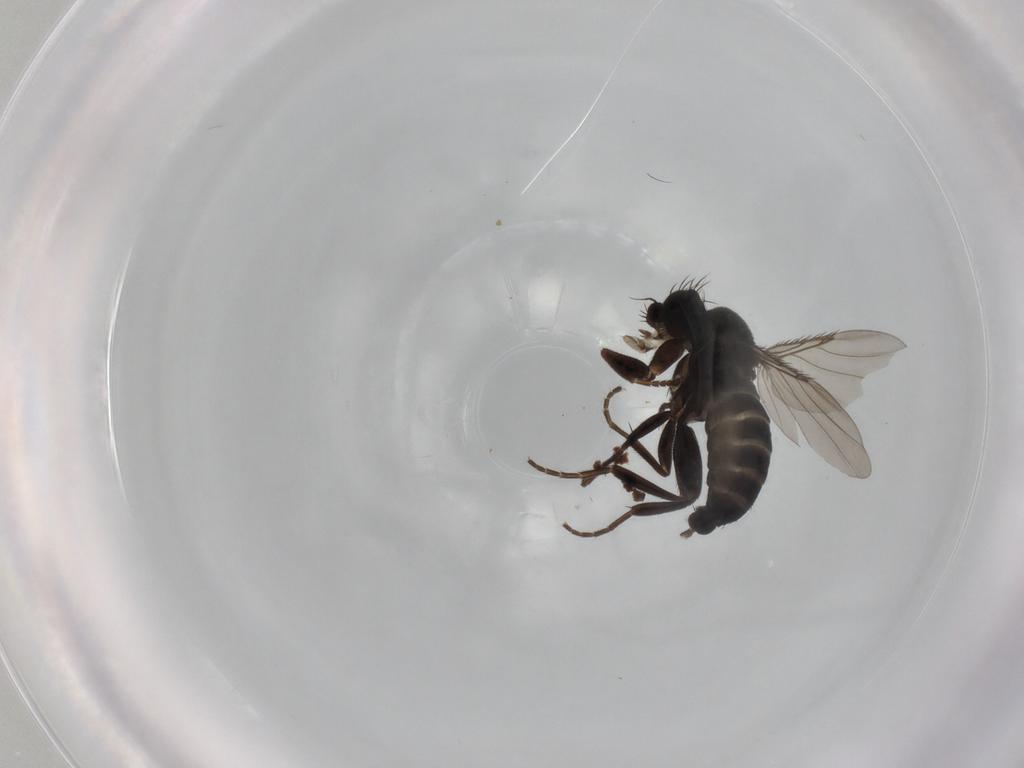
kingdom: Animalia
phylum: Arthropoda
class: Insecta
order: Diptera
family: Phoridae
